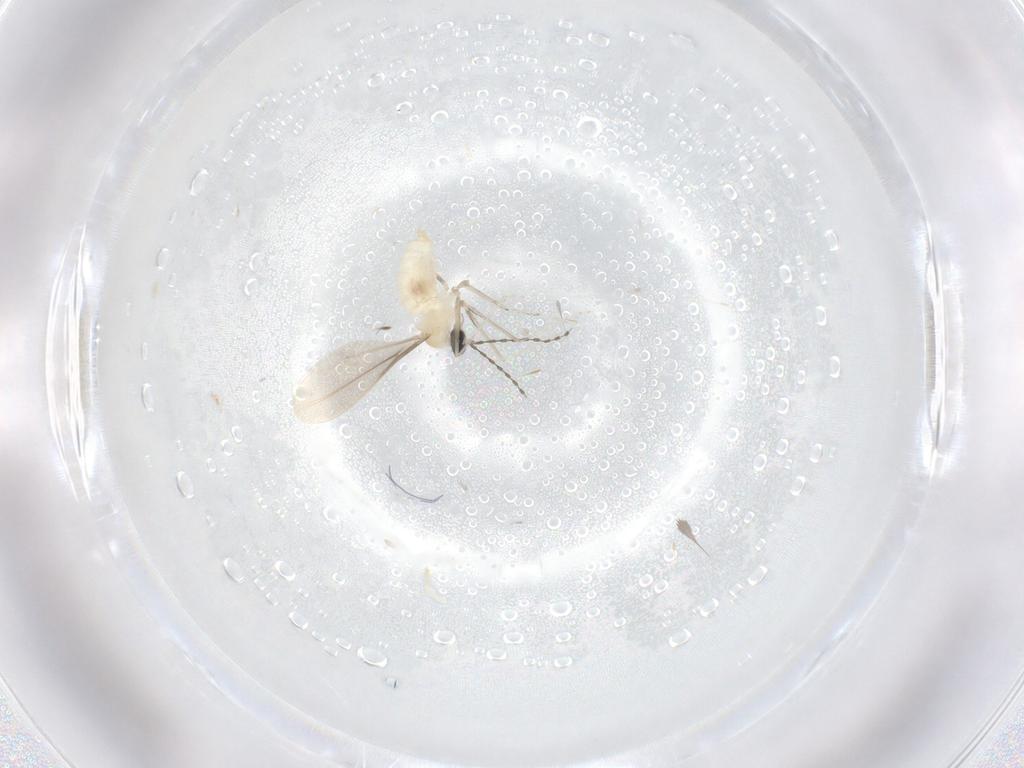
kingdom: Animalia
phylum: Arthropoda
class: Insecta
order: Diptera
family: Cecidomyiidae
